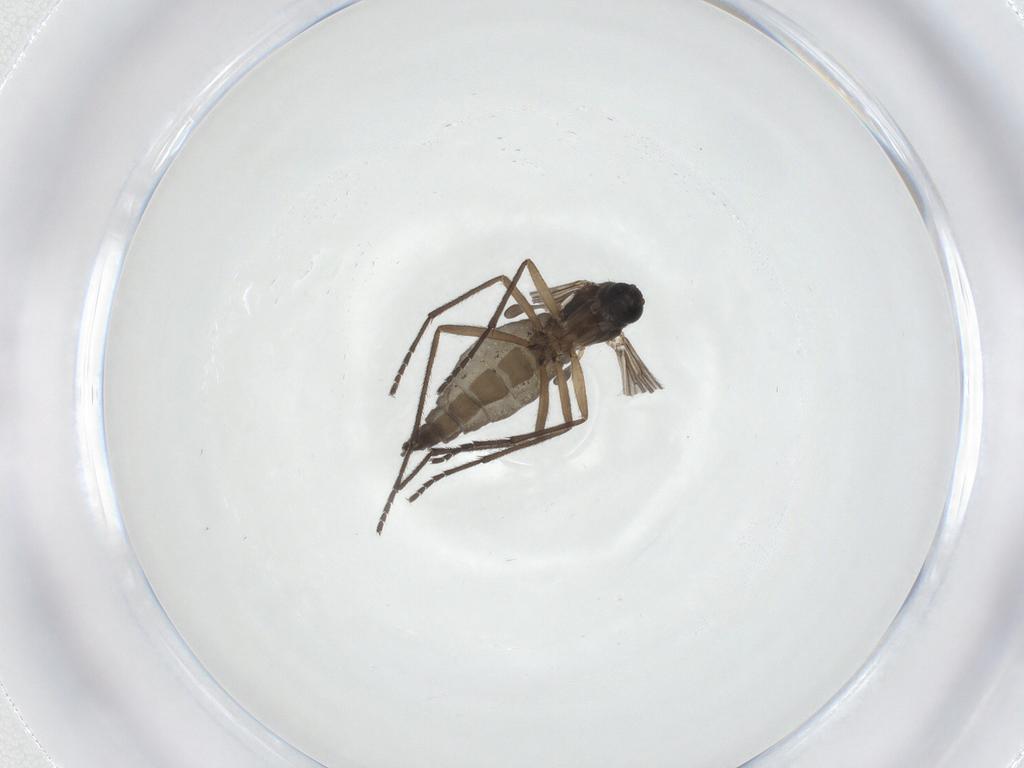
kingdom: Animalia
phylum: Arthropoda
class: Insecta
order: Diptera
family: Sciaridae
